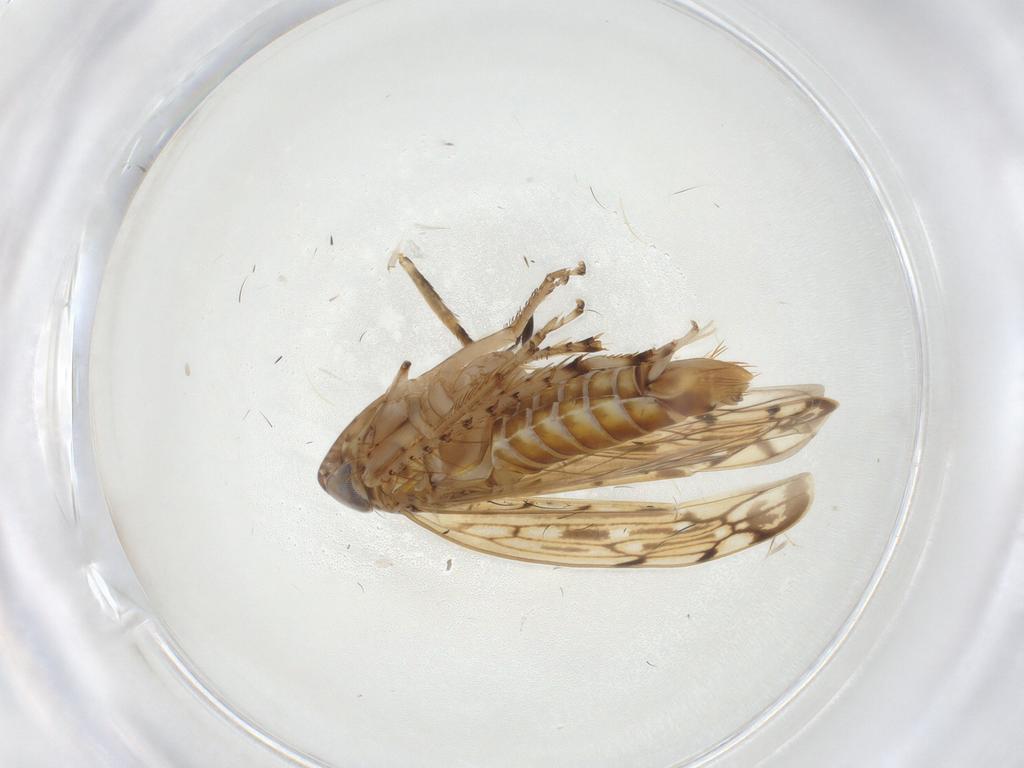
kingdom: Animalia
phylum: Arthropoda
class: Insecta
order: Hemiptera
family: Cicadellidae
